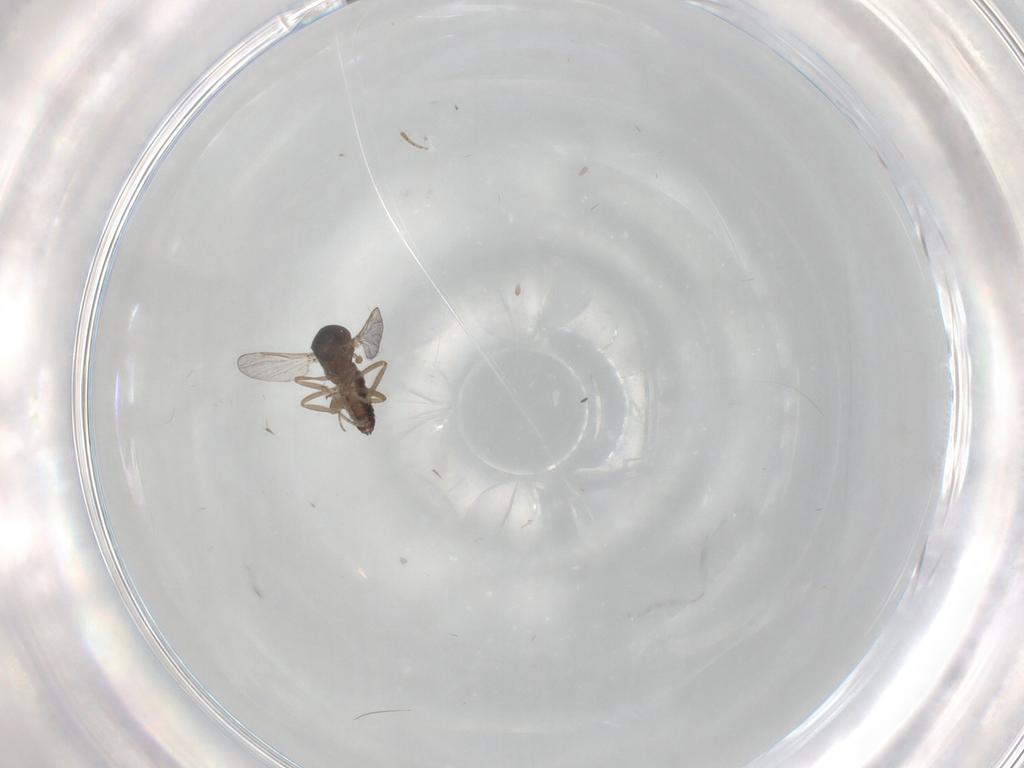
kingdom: Animalia
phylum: Arthropoda
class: Insecta
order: Diptera
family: Ceratopogonidae
